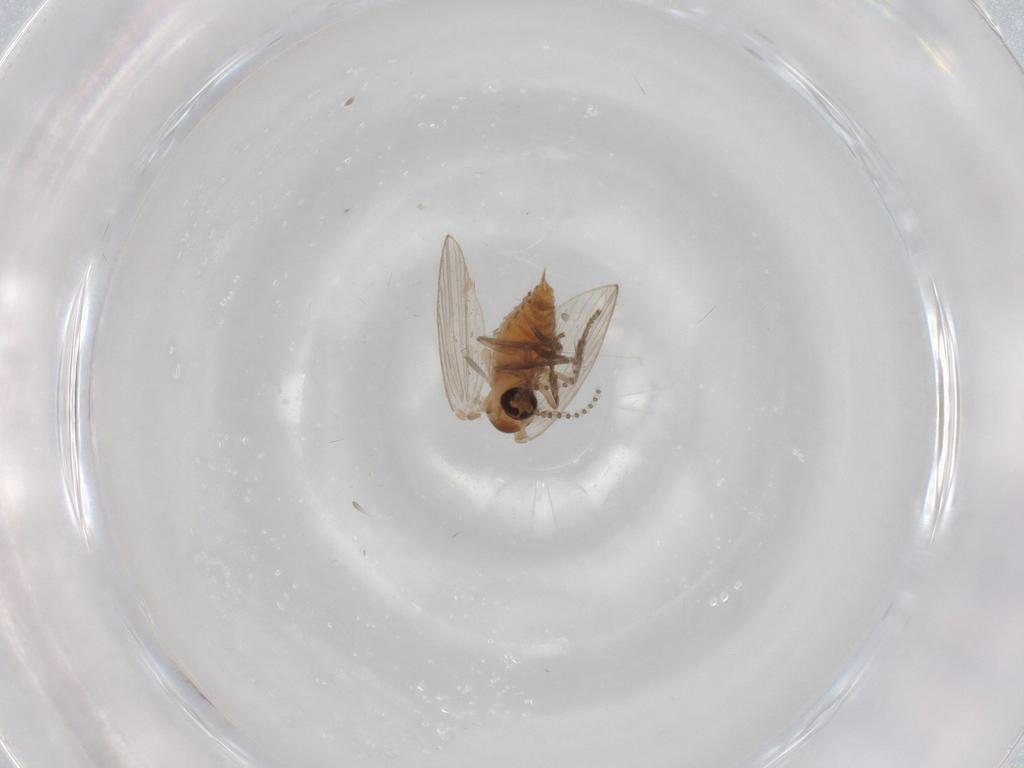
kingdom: Animalia
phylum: Arthropoda
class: Insecta
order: Diptera
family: Psychodidae
